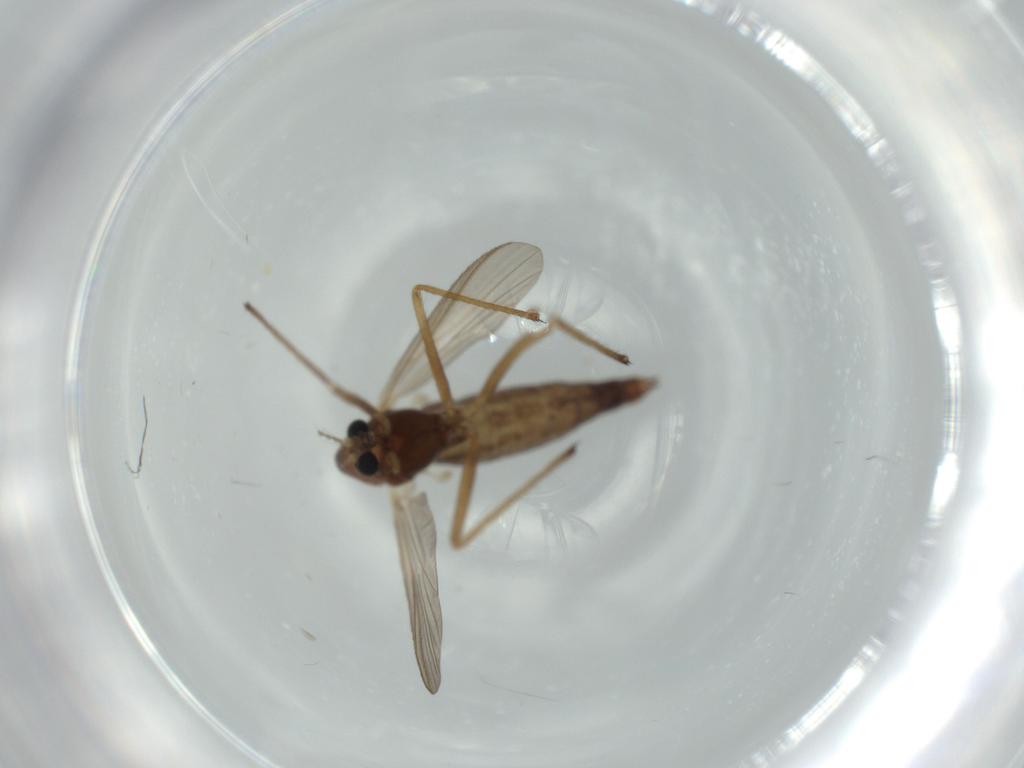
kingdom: Animalia
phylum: Arthropoda
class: Insecta
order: Diptera
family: Chironomidae
